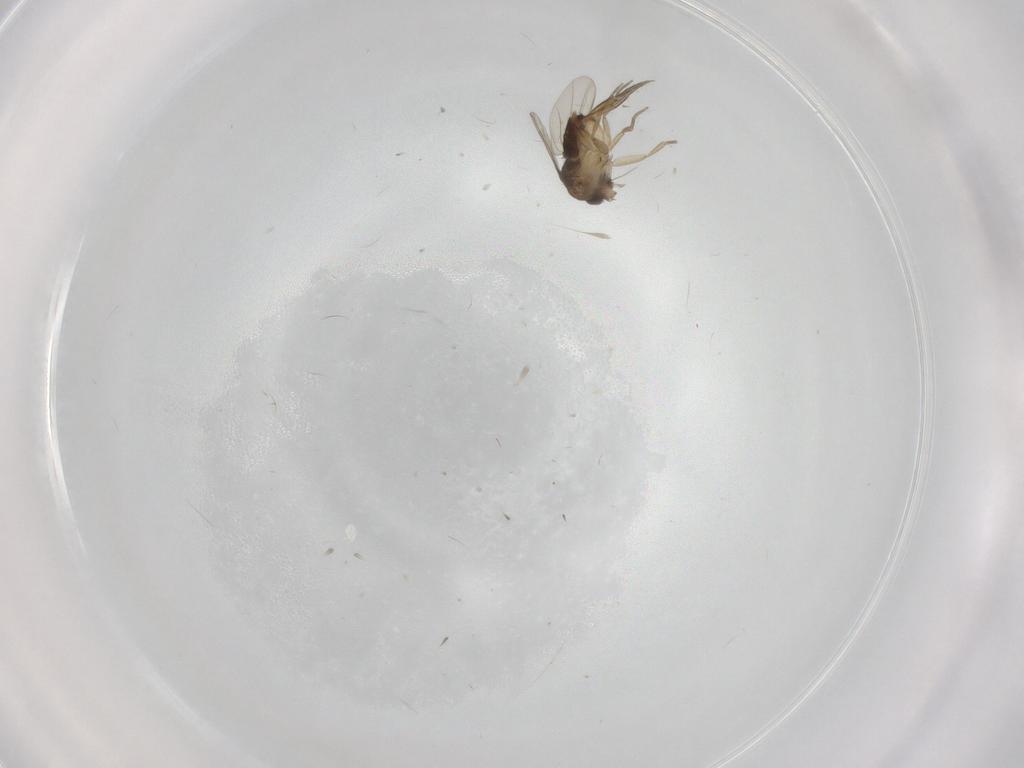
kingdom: Animalia
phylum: Arthropoda
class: Insecta
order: Diptera
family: Phoridae
